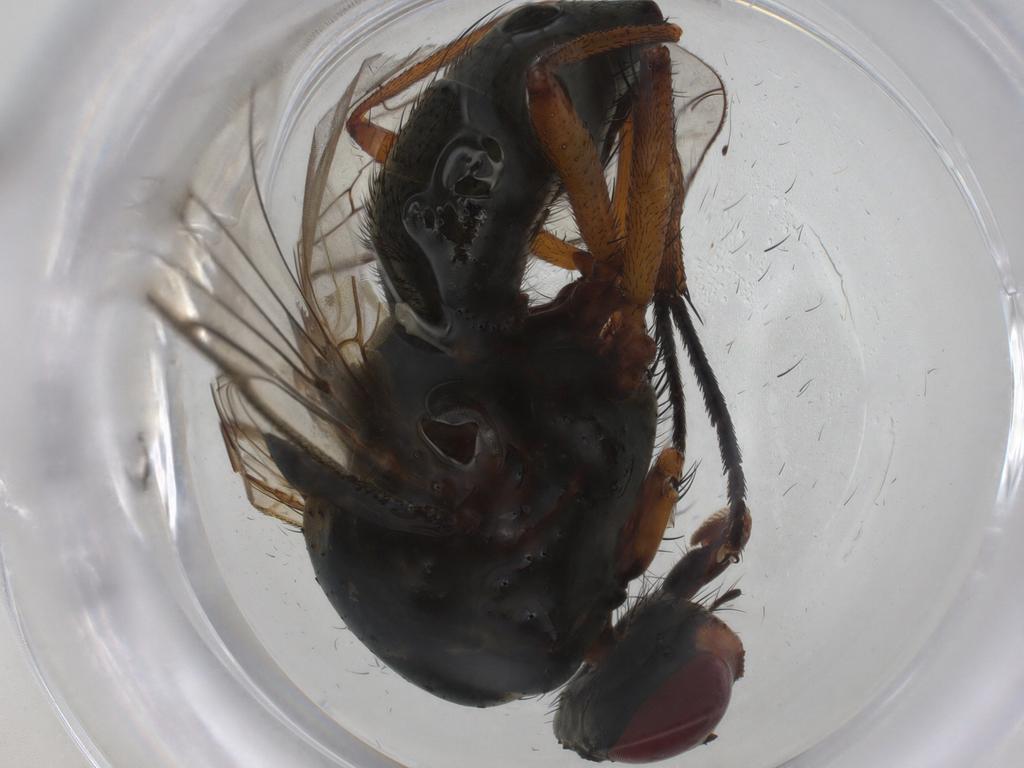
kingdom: Animalia
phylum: Arthropoda
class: Insecta
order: Diptera
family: Anthomyiidae
